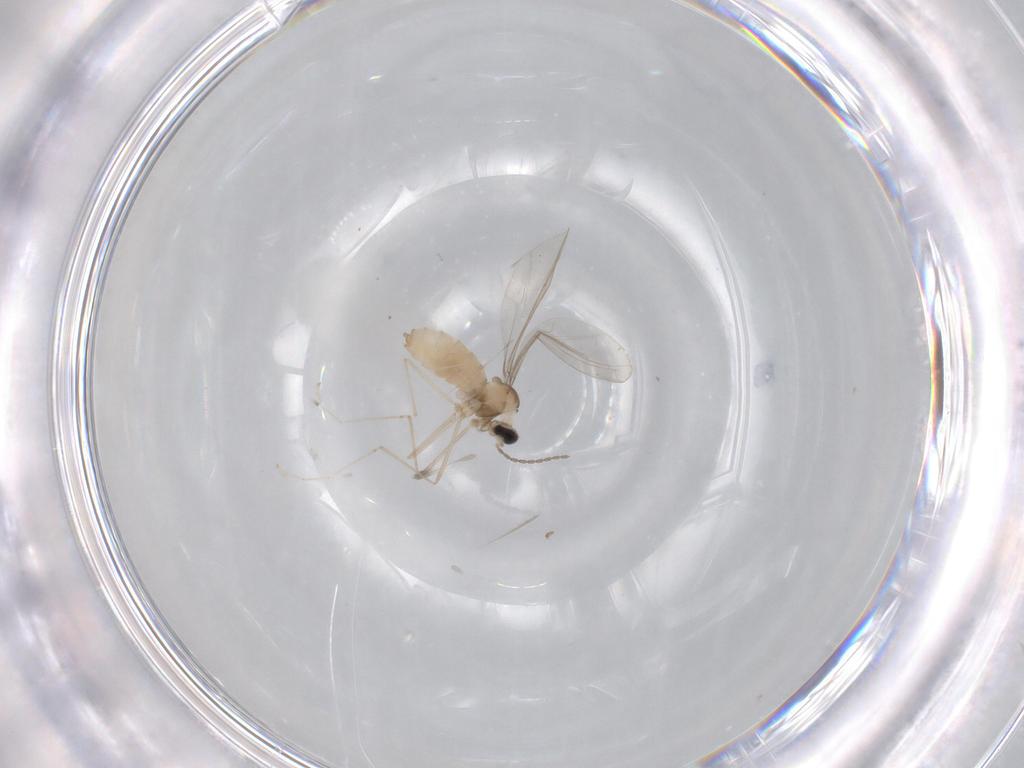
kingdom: Animalia
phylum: Arthropoda
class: Insecta
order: Diptera
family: Cecidomyiidae
